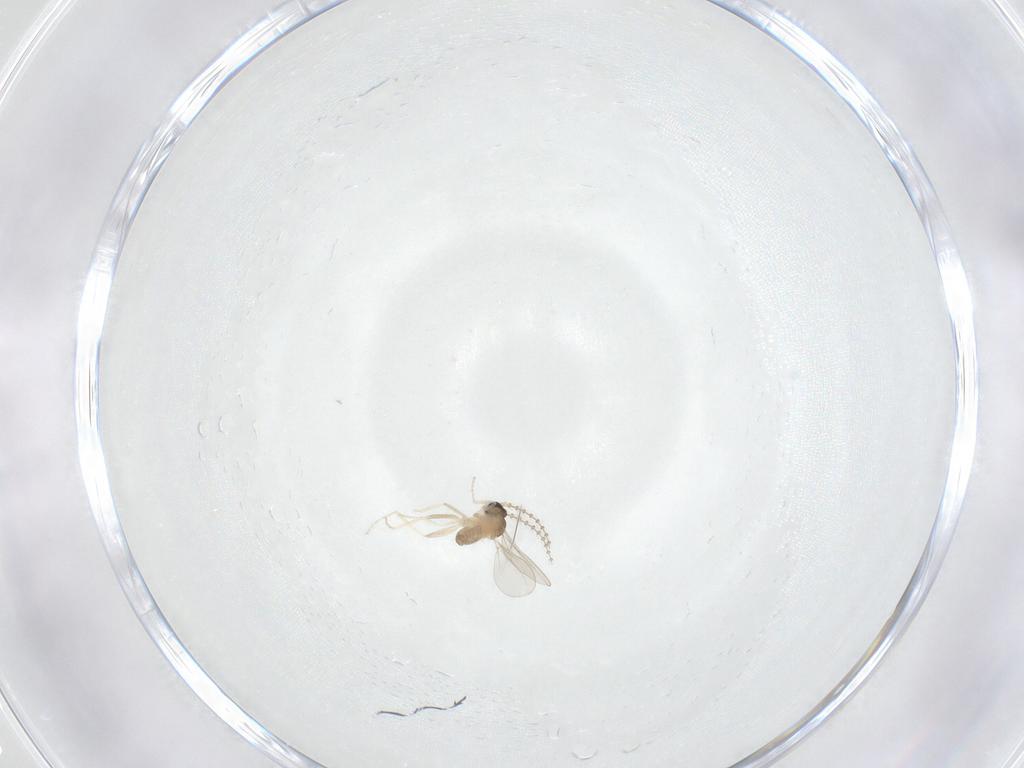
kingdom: Animalia
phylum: Arthropoda
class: Insecta
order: Diptera
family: Cecidomyiidae
